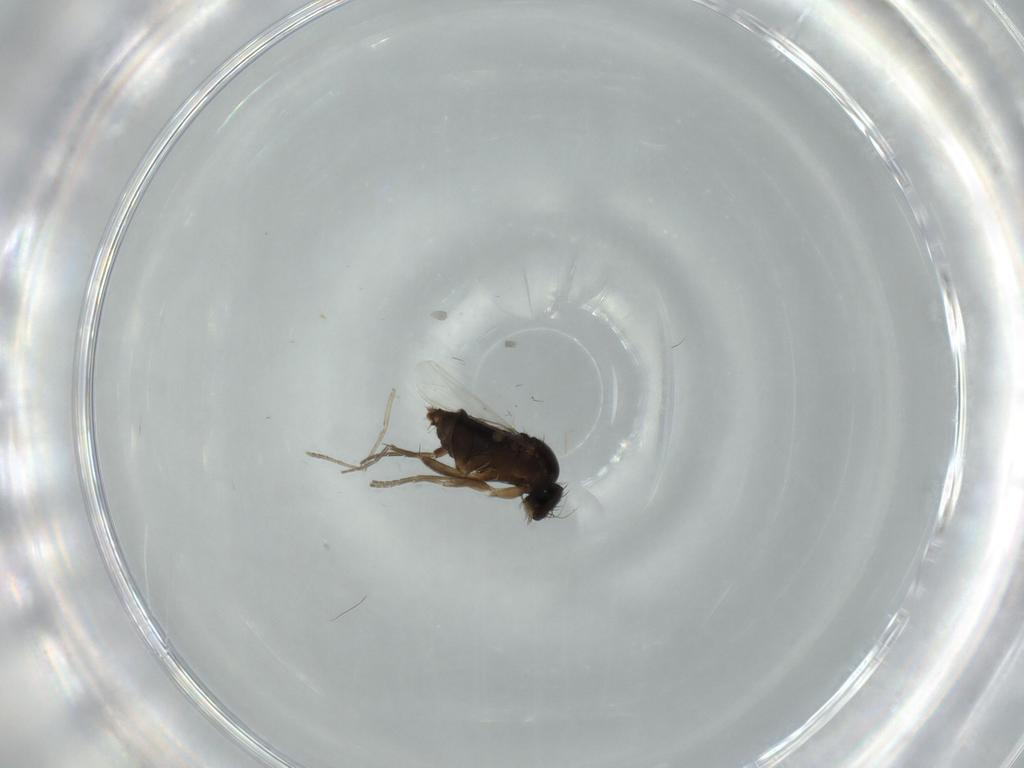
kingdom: Animalia
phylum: Arthropoda
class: Insecta
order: Diptera
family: Phoridae
